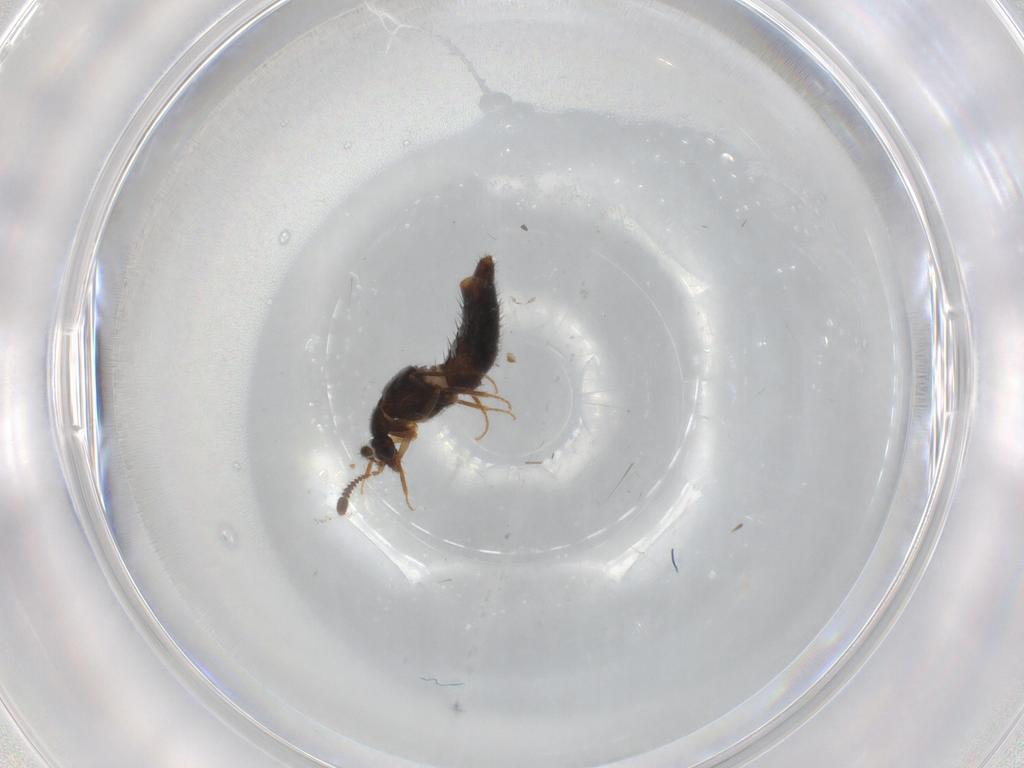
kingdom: Animalia
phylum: Arthropoda
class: Insecta
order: Coleoptera
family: Staphylinidae
